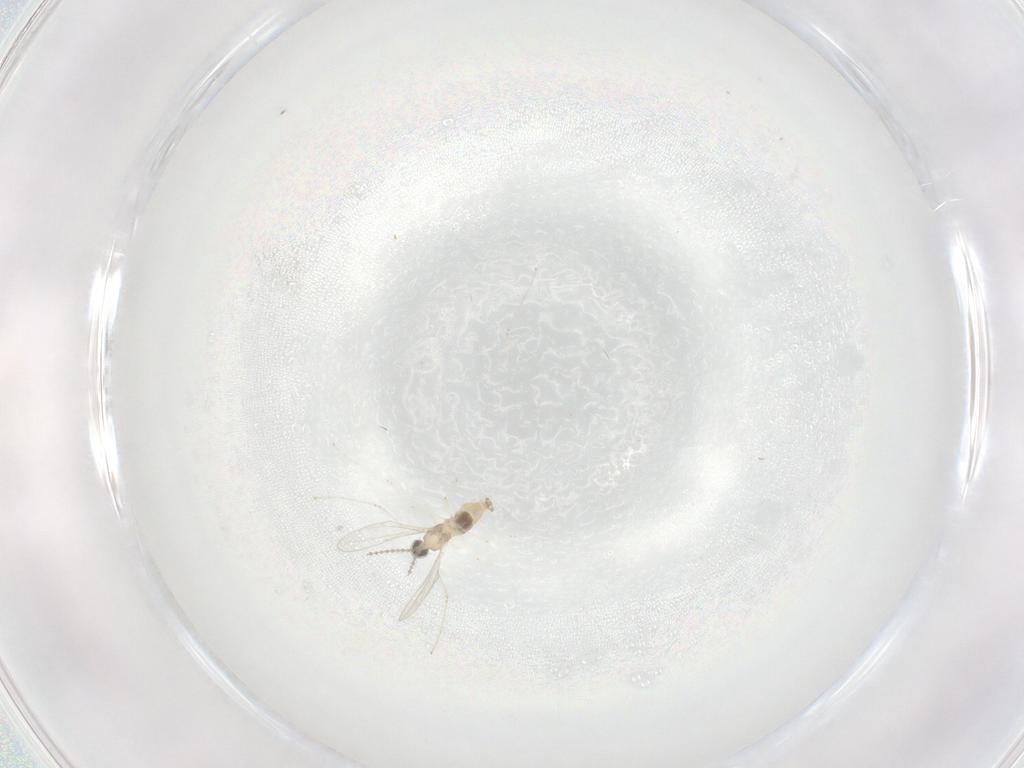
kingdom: Animalia
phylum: Arthropoda
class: Insecta
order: Diptera
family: Cecidomyiidae
